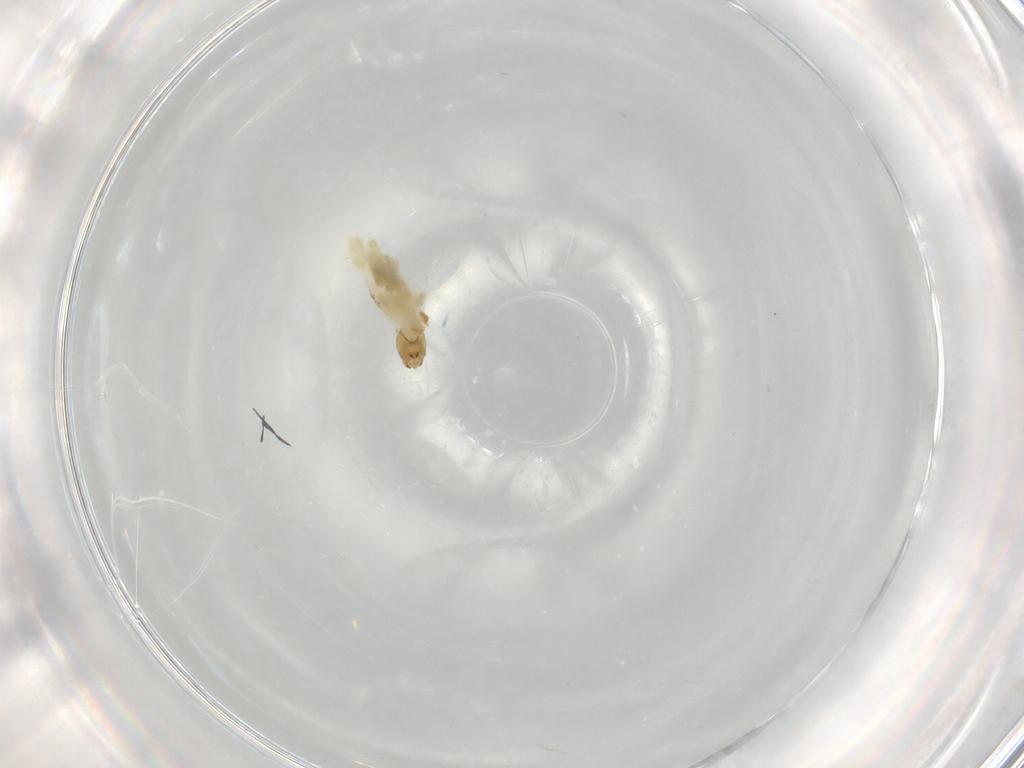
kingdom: Animalia
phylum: Arthropoda
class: Insecta
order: Diptera
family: Chironomidae
